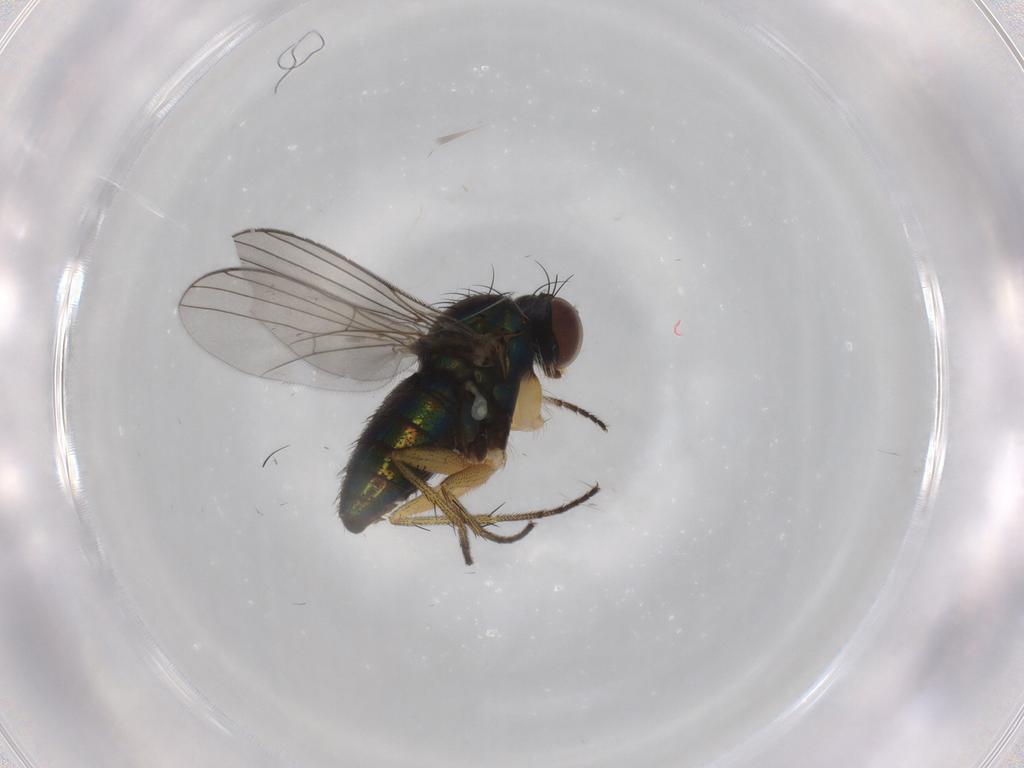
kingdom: Animalia
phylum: Arthropoda
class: Insecta
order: Diptera
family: Dolichopodidae
